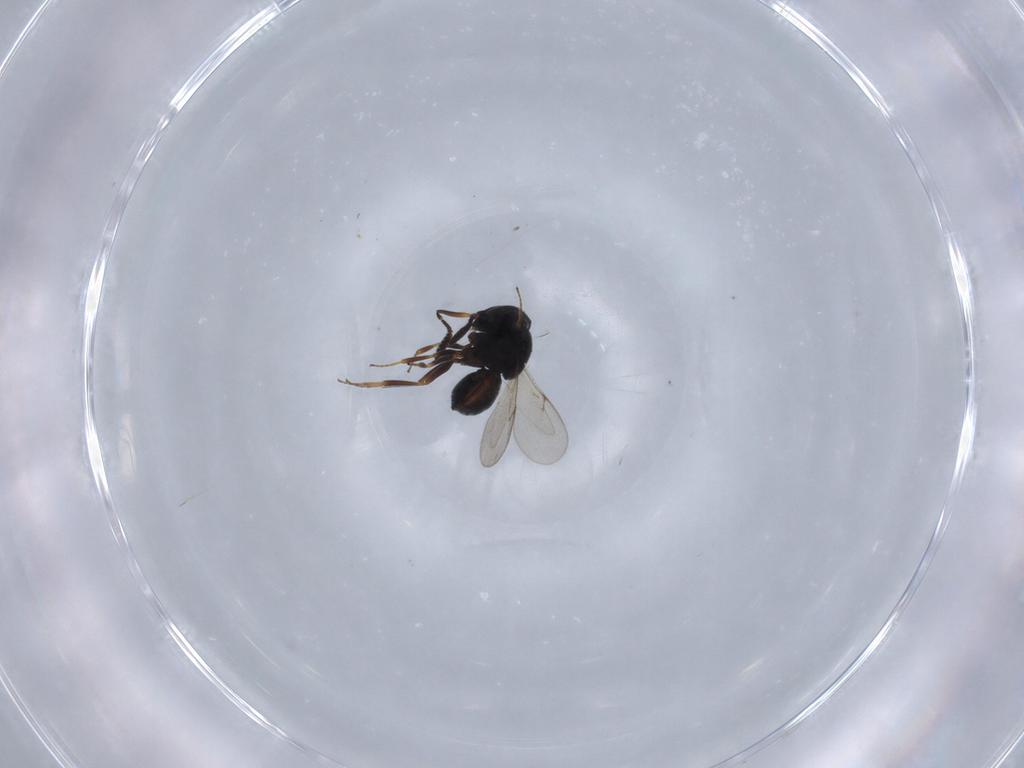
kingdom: Animalia
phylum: Arthropoda
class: Insecta
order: Hymenoptera
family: Scelionidae
